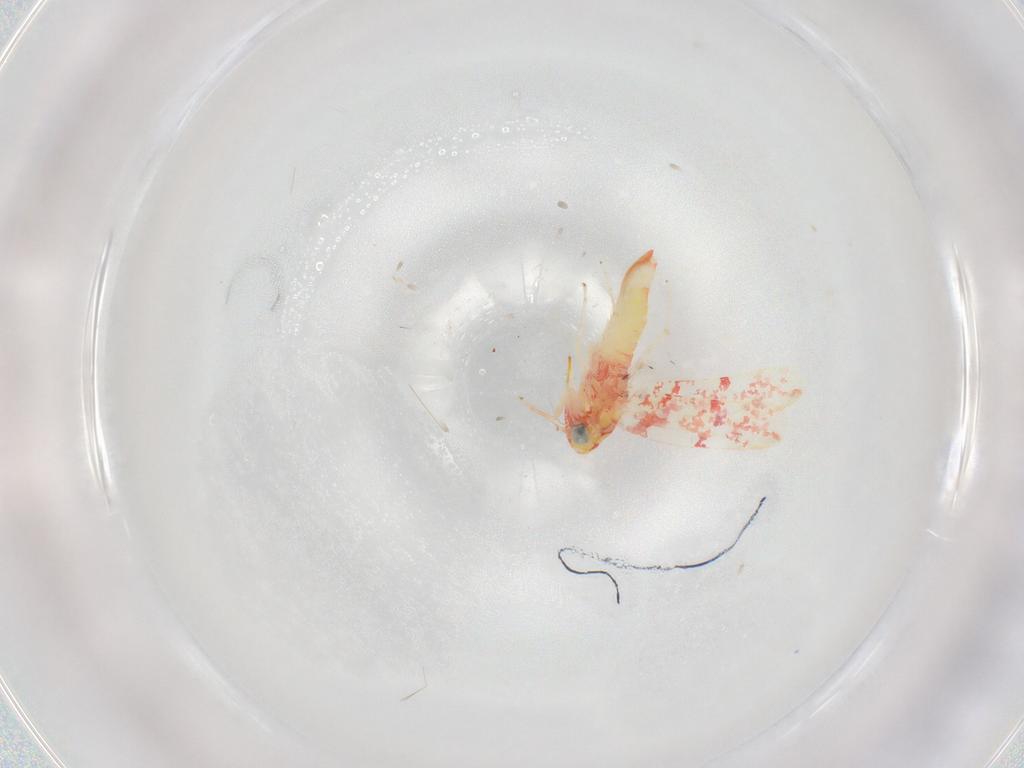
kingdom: Animalia
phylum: Arthropoda
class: Insecta
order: Hemiptera
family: Cicadellidae
